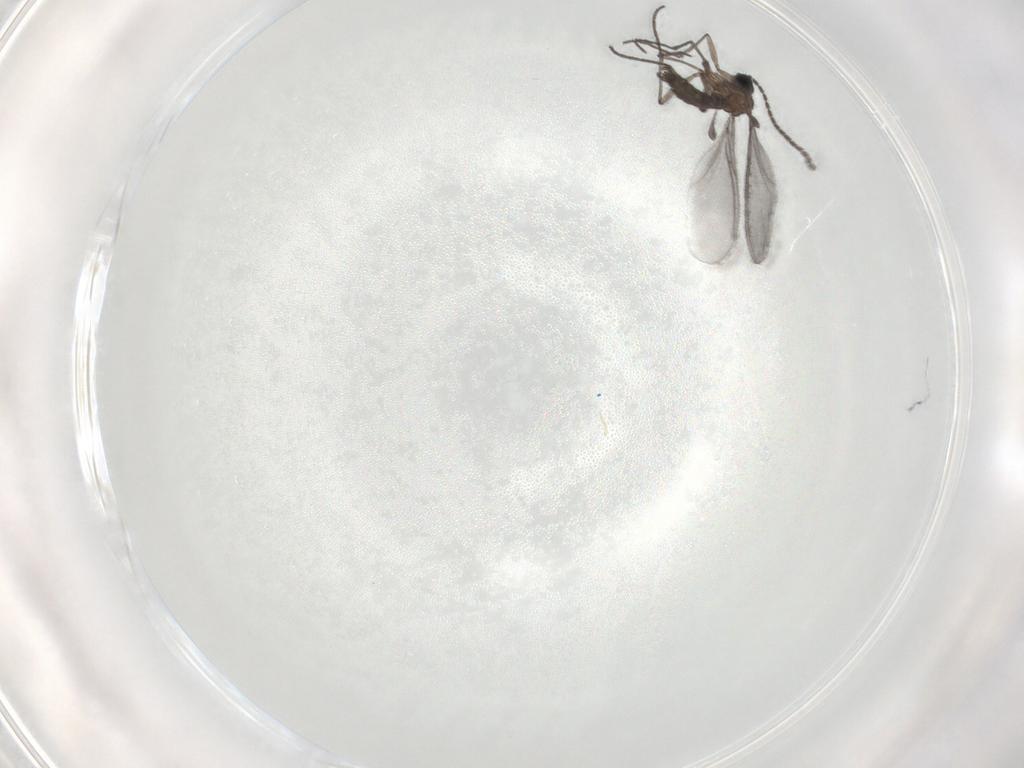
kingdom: Animalia
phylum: Arthropoda
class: Insecta
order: Diptera
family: Sciaridae
